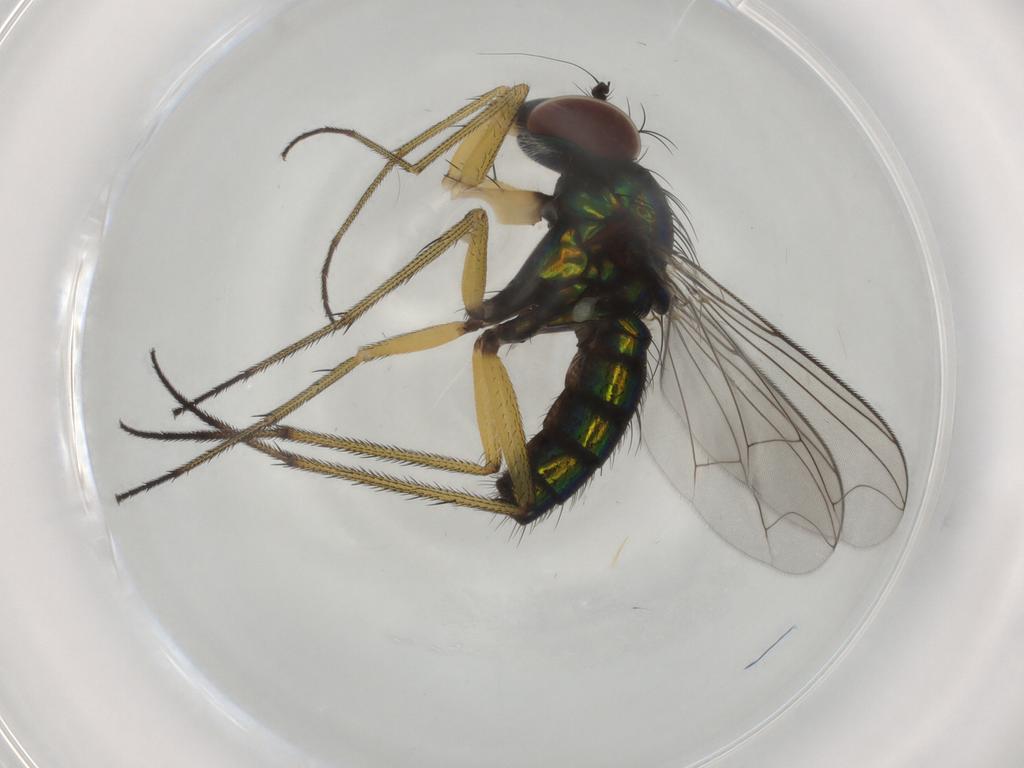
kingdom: Animalia
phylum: Arthropoda
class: Insecta
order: Diptera
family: Dolichopodidae
